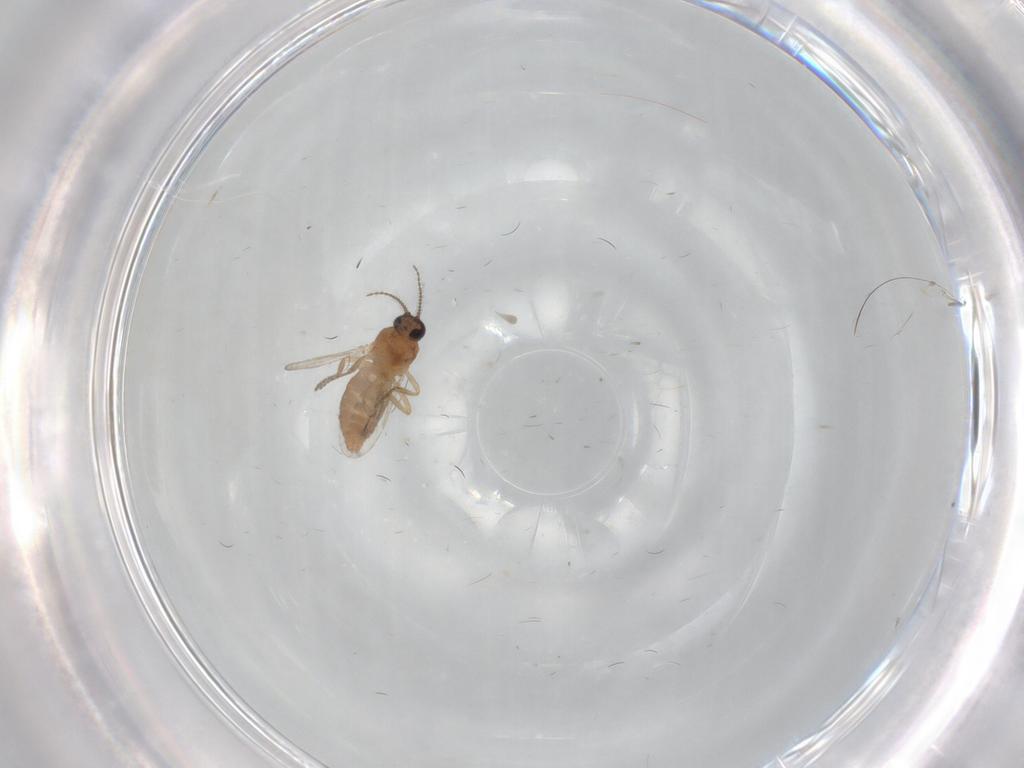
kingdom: Animalia
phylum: Arthropoda
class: Insecta
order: Diptera
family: Ceratopogonidae
